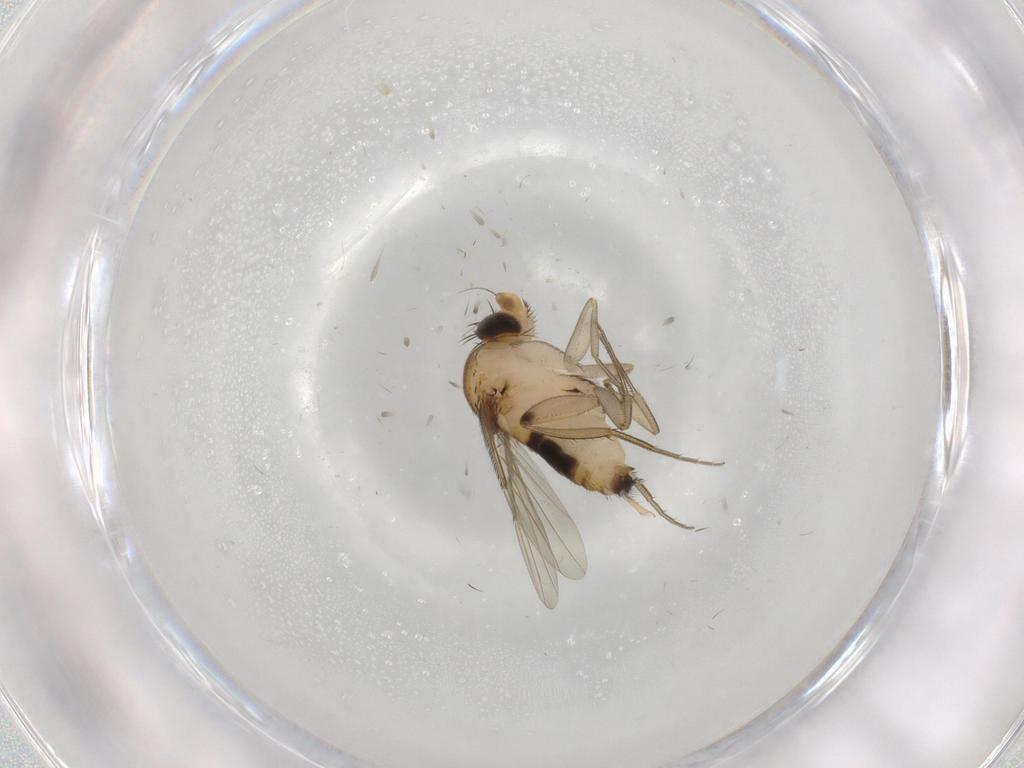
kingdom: Animalia
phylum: Arthropoda
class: Insecta
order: Diptera
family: Phoridae
